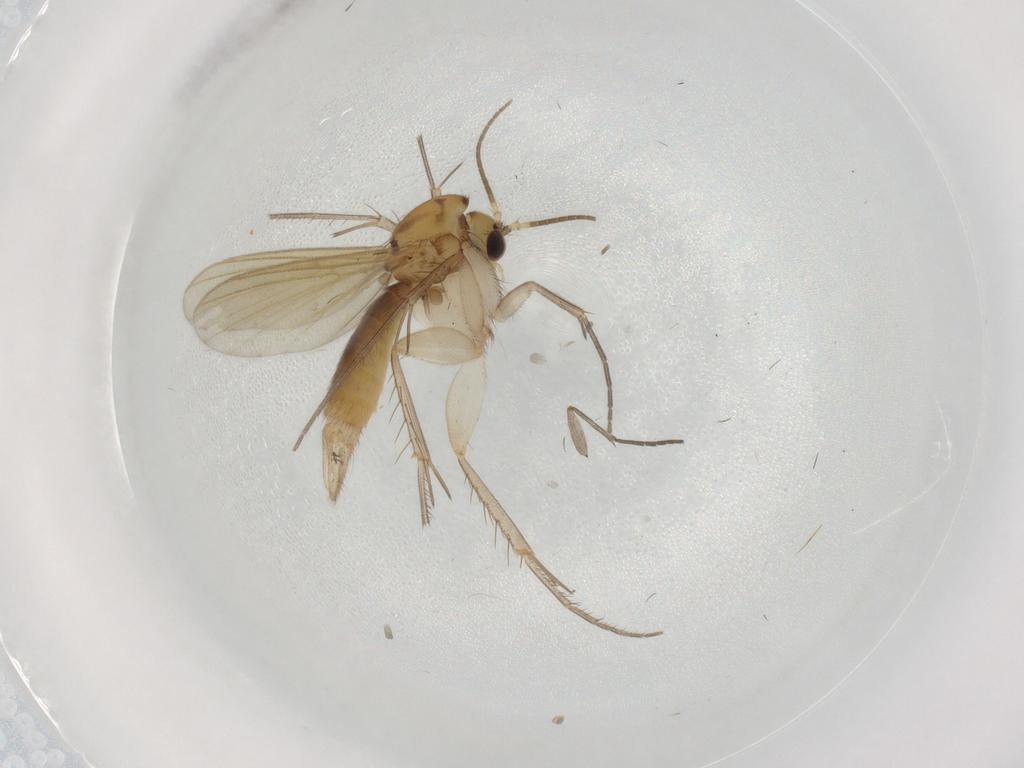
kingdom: Animalia
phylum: Arthropoda
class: Insecta
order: Diptera
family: Mycetophilidae
